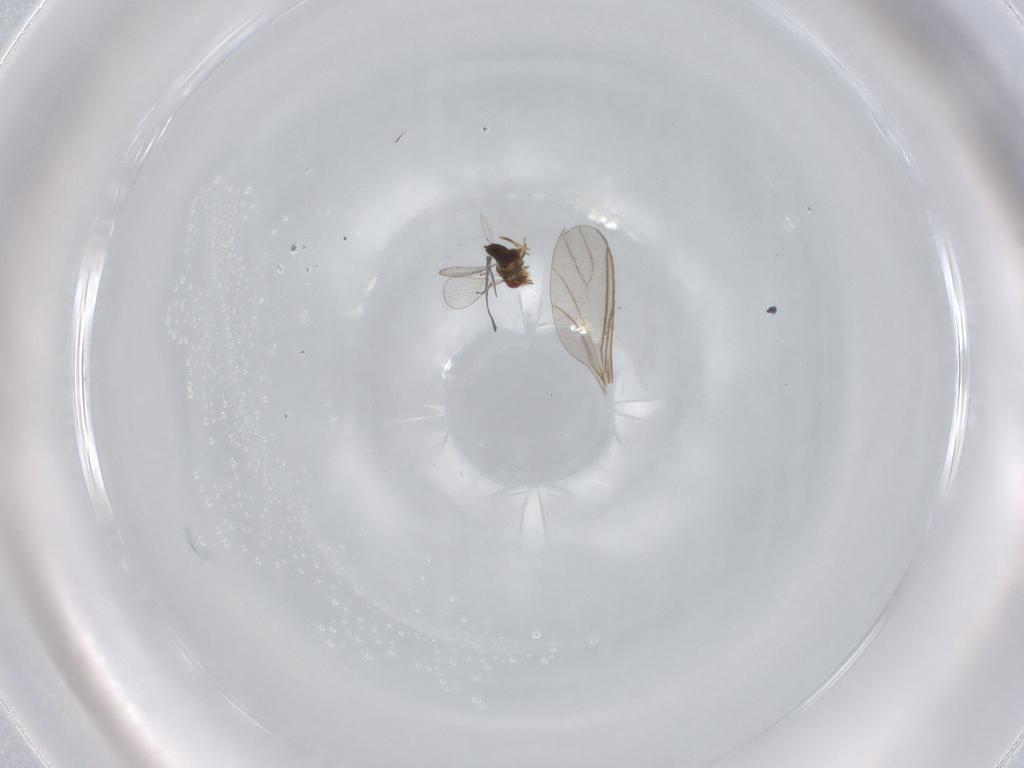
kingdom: Animalia
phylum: Arthropoda
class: Insecta
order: Hymenoptera
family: Trichogrammatidae
